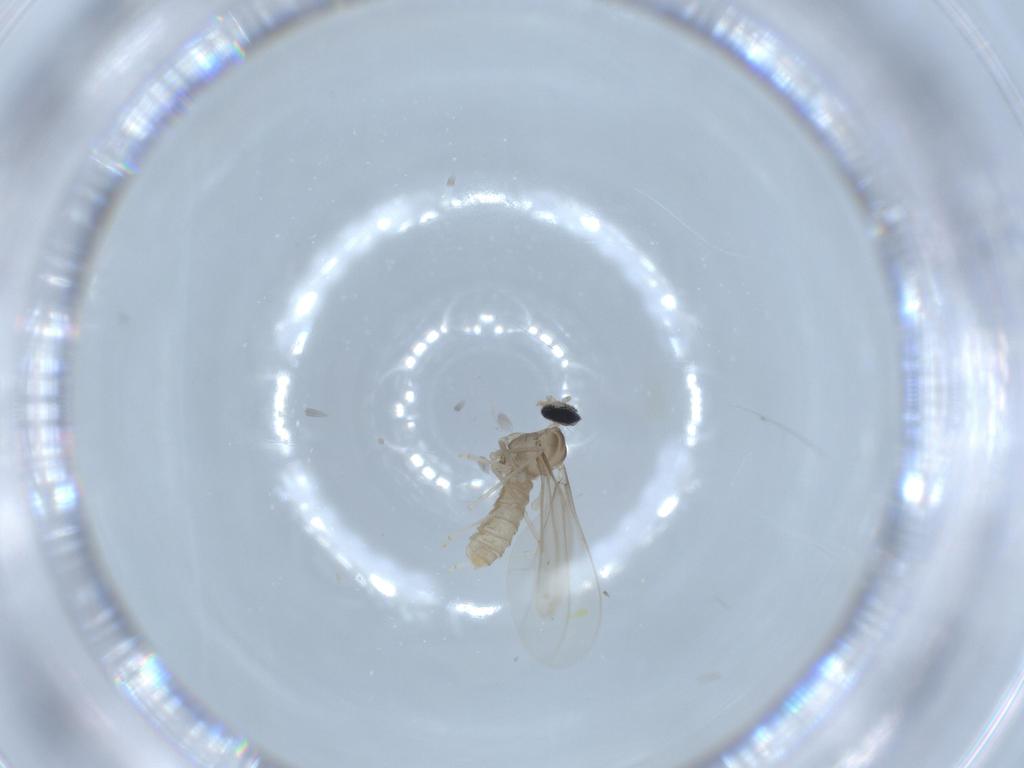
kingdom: Animalia
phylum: Arthropoda
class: Insecta
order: Diptera
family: Cecidomyiidae
